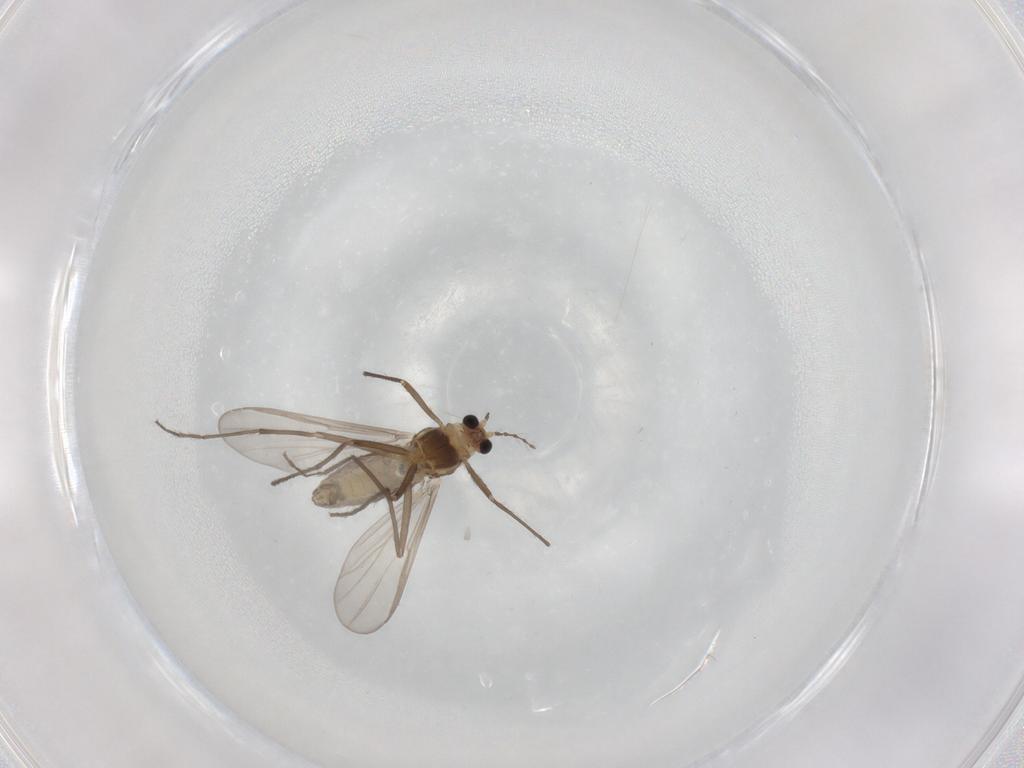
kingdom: Animalia
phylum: Arthropoda
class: Insecta
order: Diptera
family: Chironomidae
